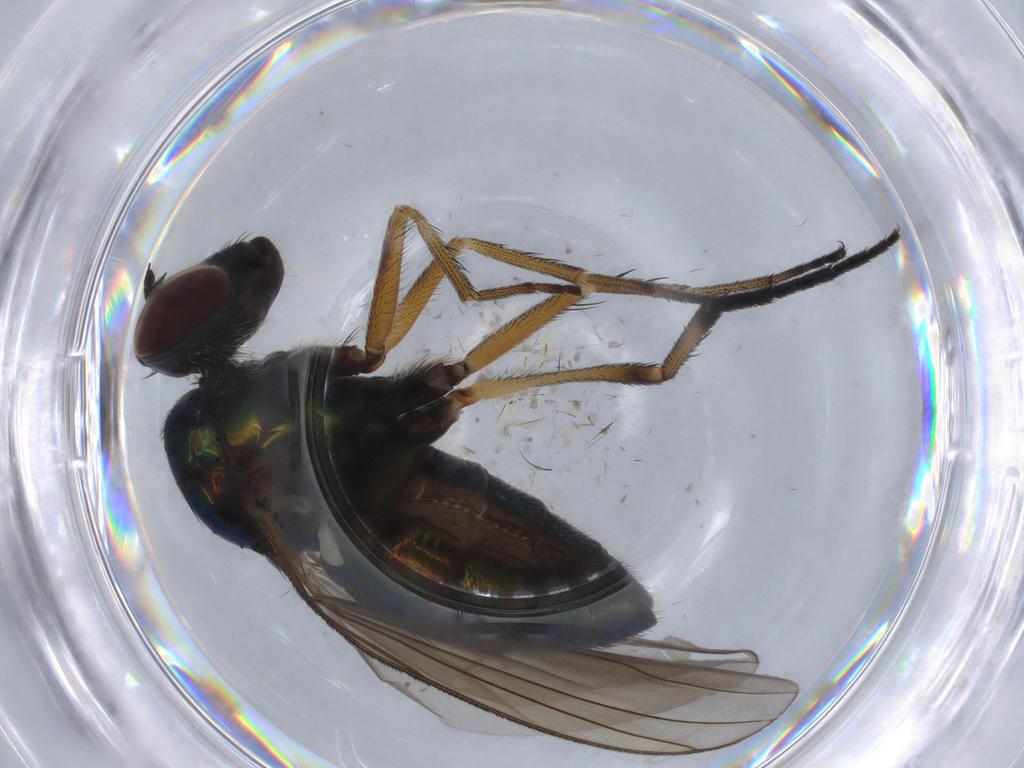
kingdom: Animalia
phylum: Arthropoda
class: Insecta
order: Diptera
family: Dolichopodidae
